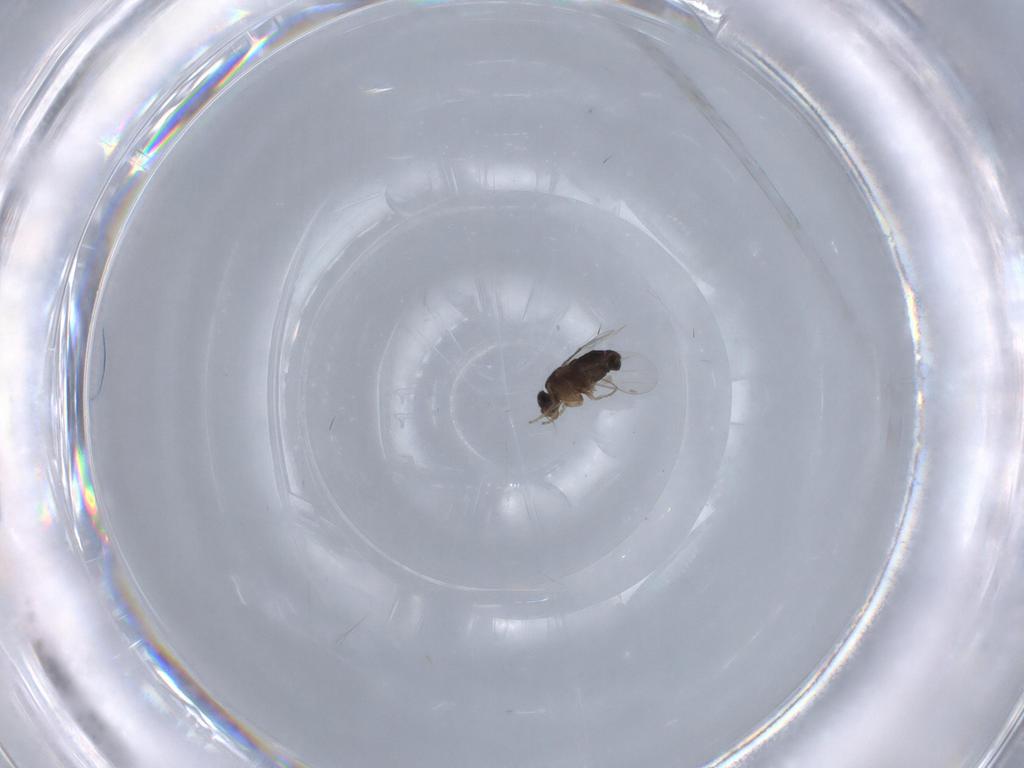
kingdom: Animalia
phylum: Arthropoda
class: Insecta
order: Diptera
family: Phoridae
